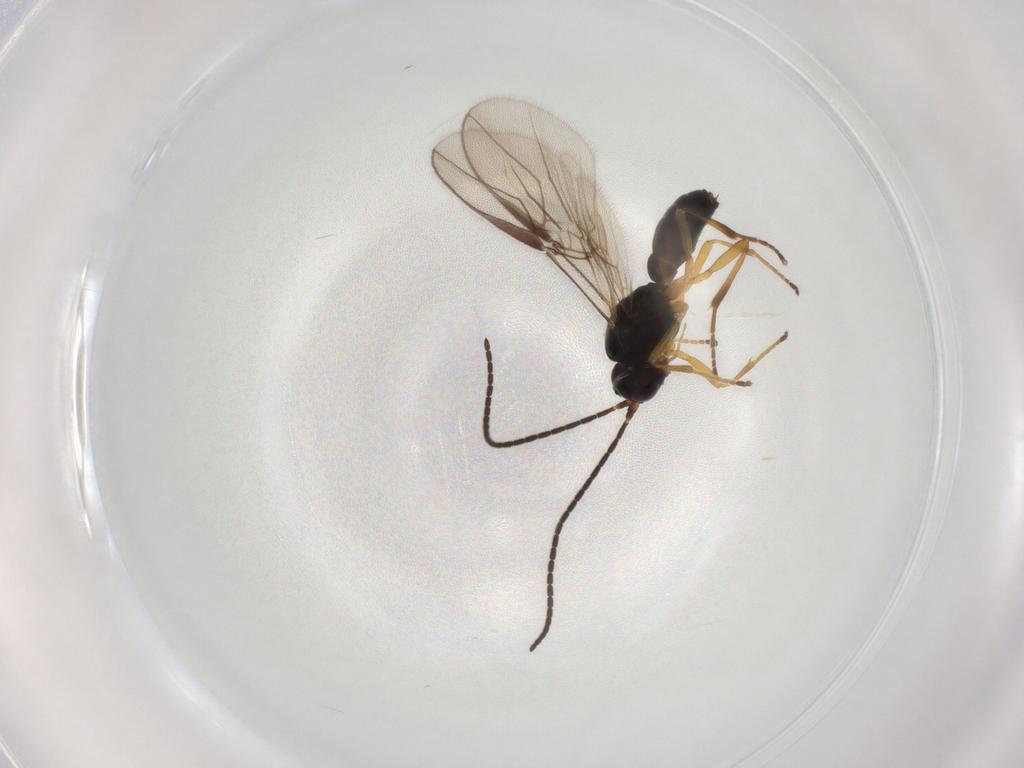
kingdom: Animalia
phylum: Arthropoda
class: Insecta
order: Hymenoptera
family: Braconidae
